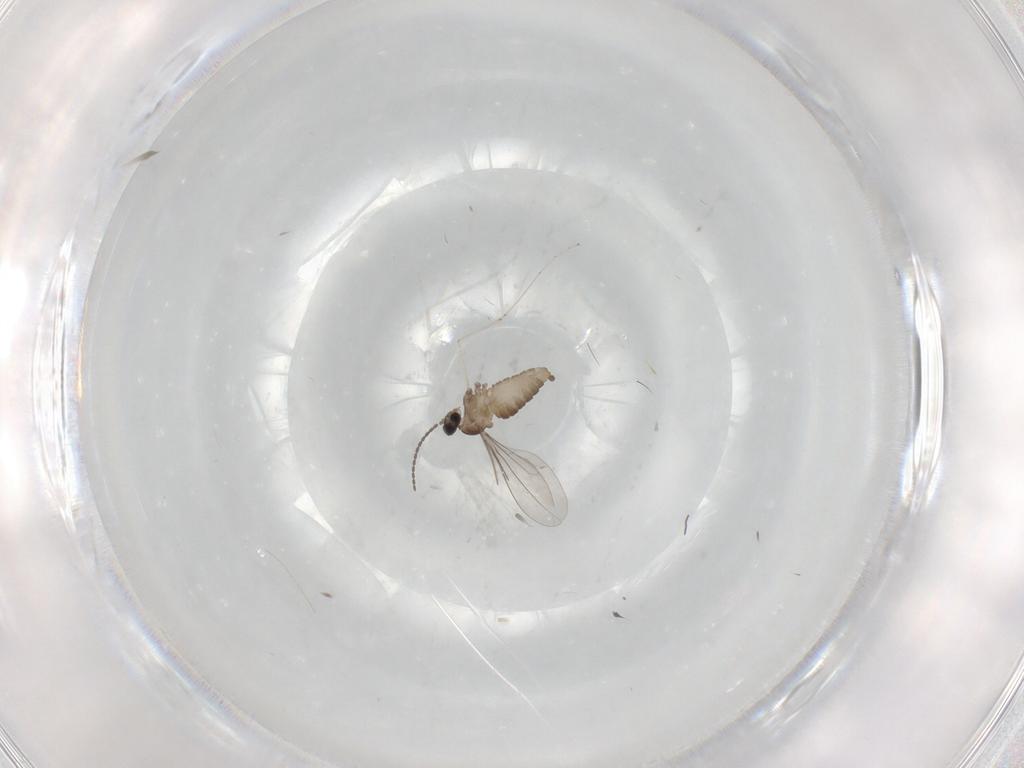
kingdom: Animalia
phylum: Arthropoda
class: Insecta
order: Diptera
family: Cecidomyiidae
